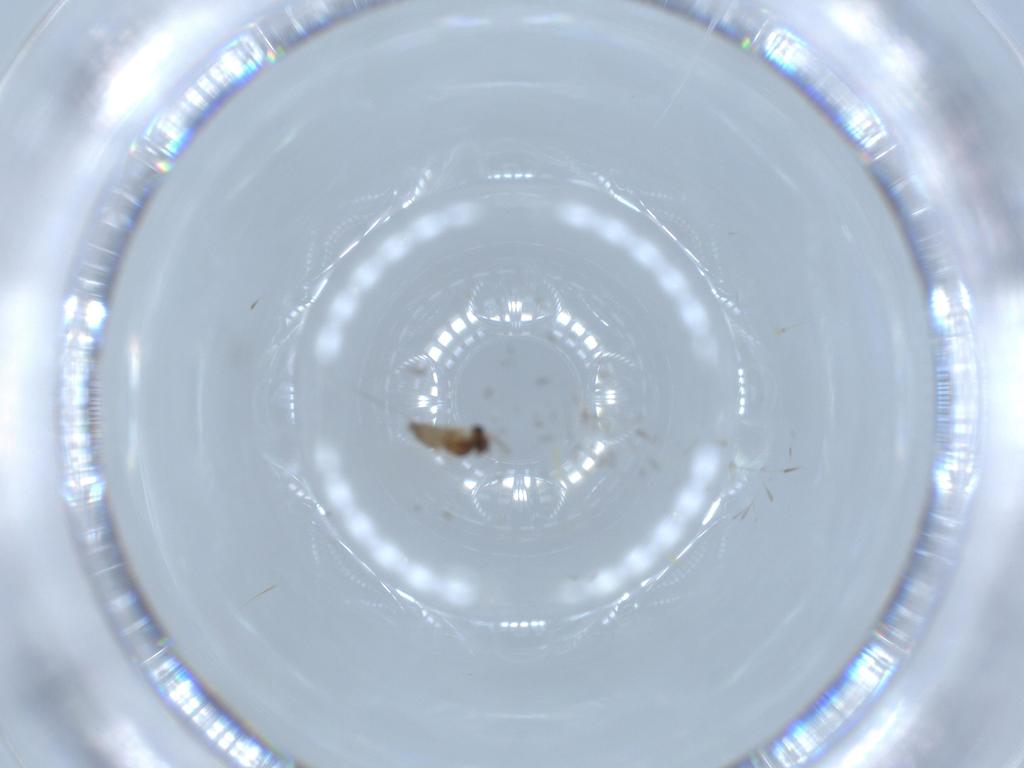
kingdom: Animalia
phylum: Arthropoda
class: Insecta
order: Diptera
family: Cecidomyiidae
